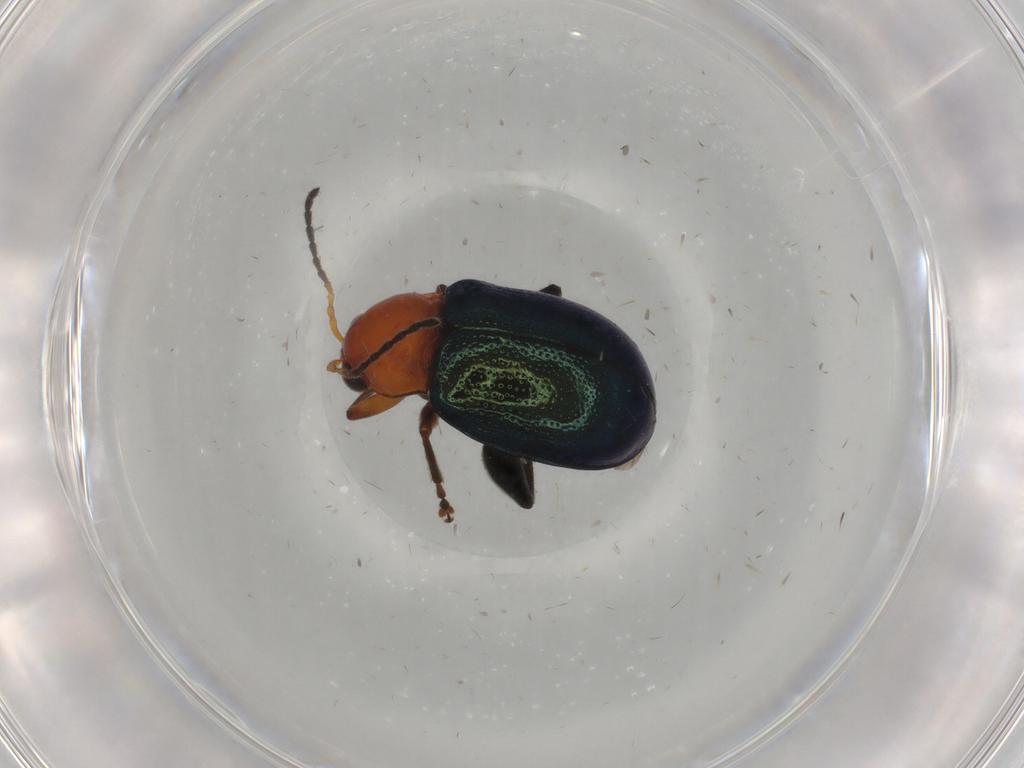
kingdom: Animalia
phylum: Arthropoda
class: Insecta
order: Coleoptera
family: Chrysomelidae
